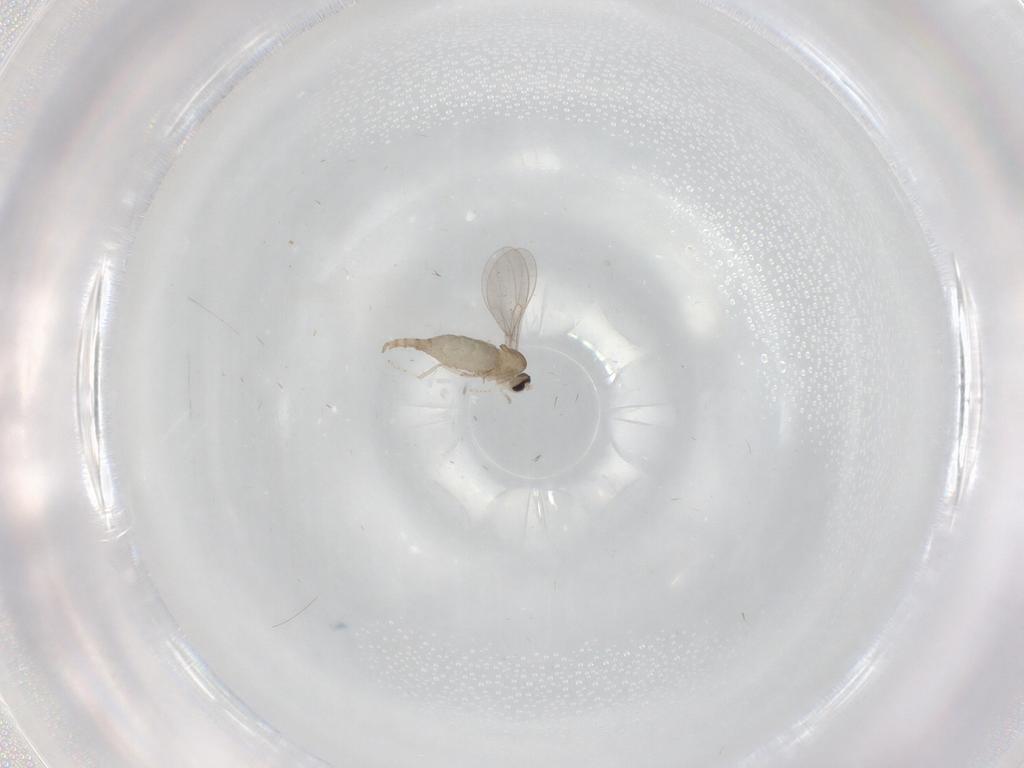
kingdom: Animalia
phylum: Arthropoda
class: Insecta
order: Diptera
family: Cecidomyiidae
